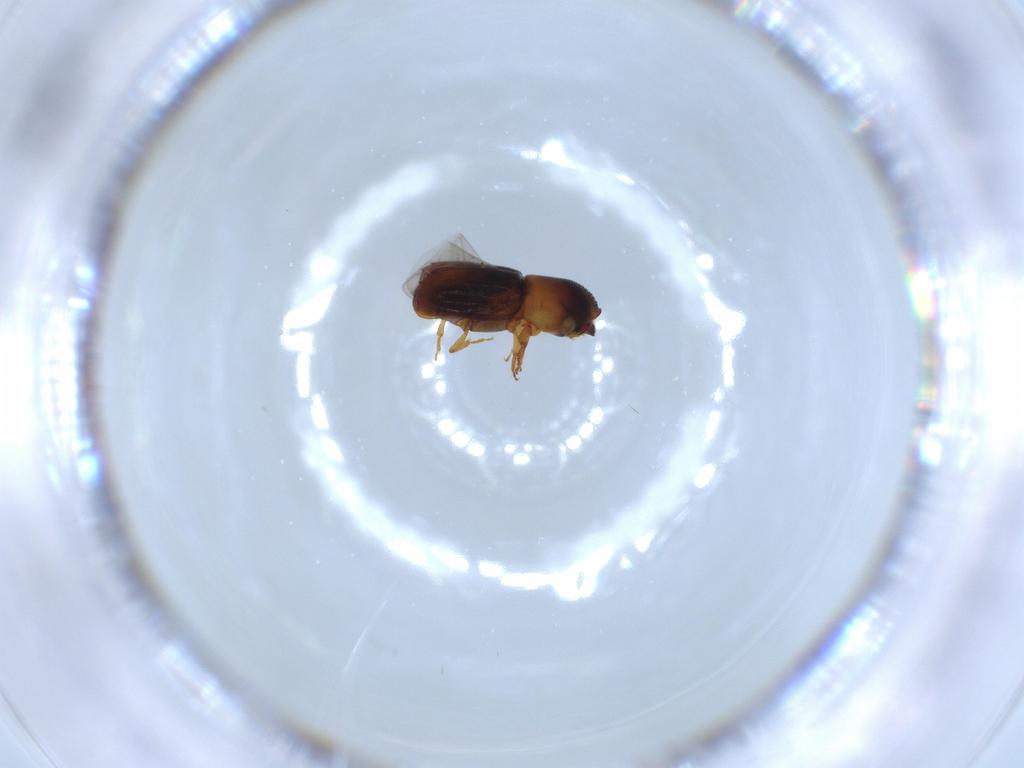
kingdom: Animalia
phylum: Arthropoda
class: Insecta
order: Coleoptera
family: Curculionidae
